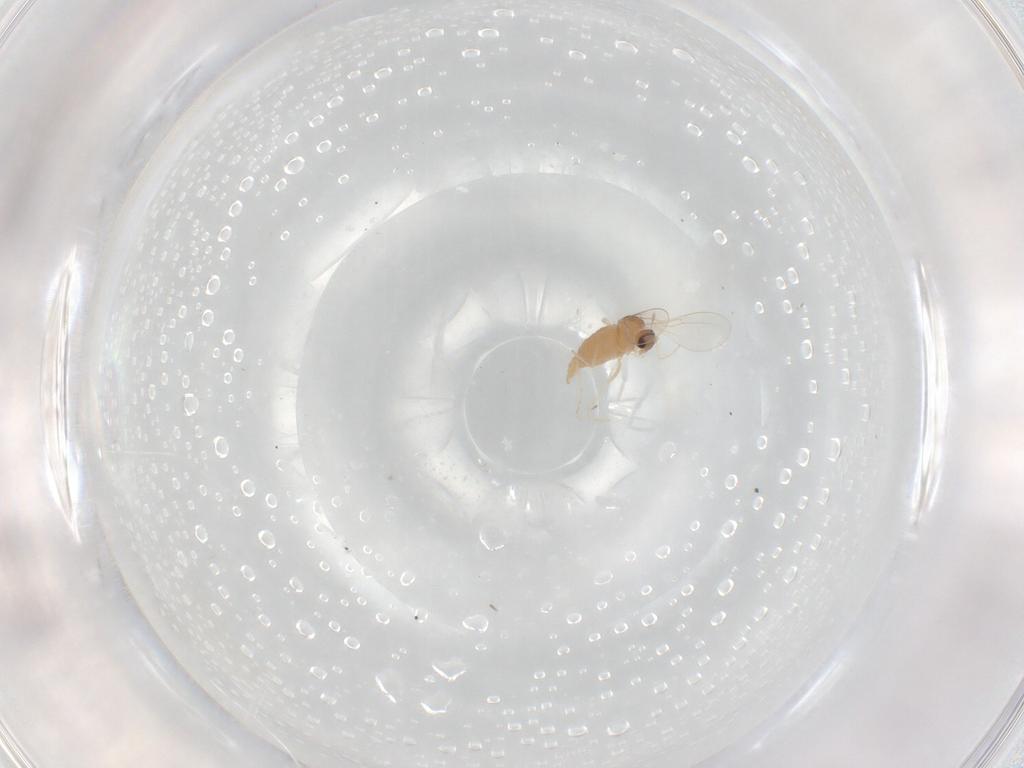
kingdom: Animalia
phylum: Arthropoda
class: Insecta
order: Diptera
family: Cecidomyiidae
